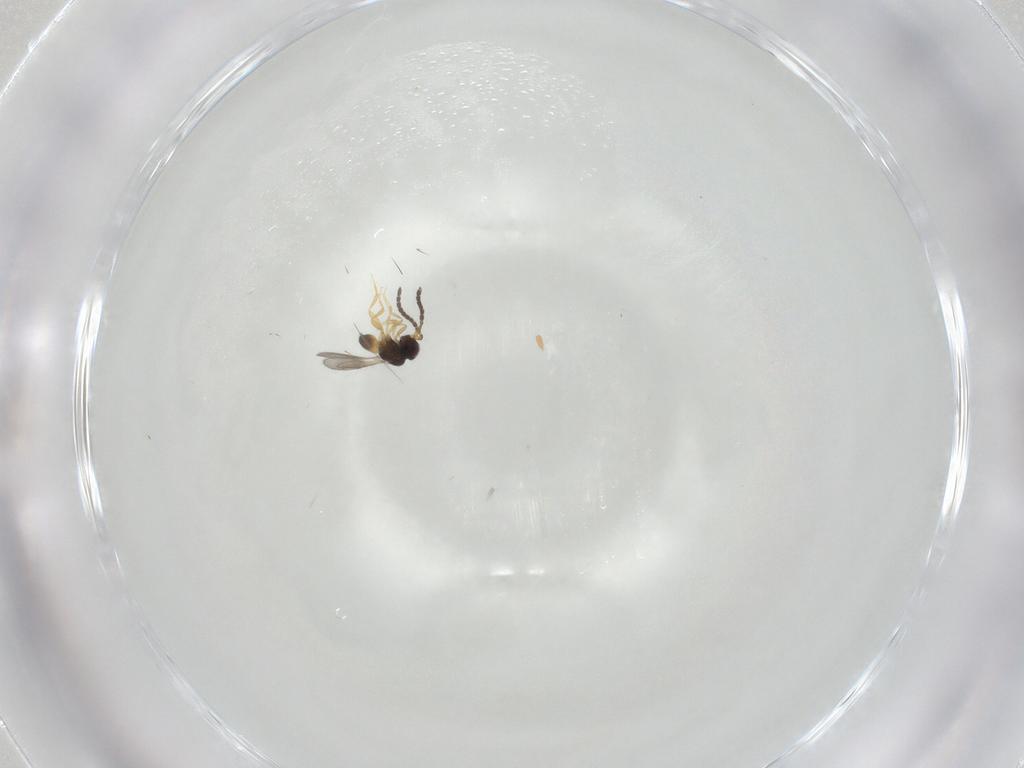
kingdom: Animalia
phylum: Arthropoda
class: Insecta
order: Hymenoptera
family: Ceraphronidae
